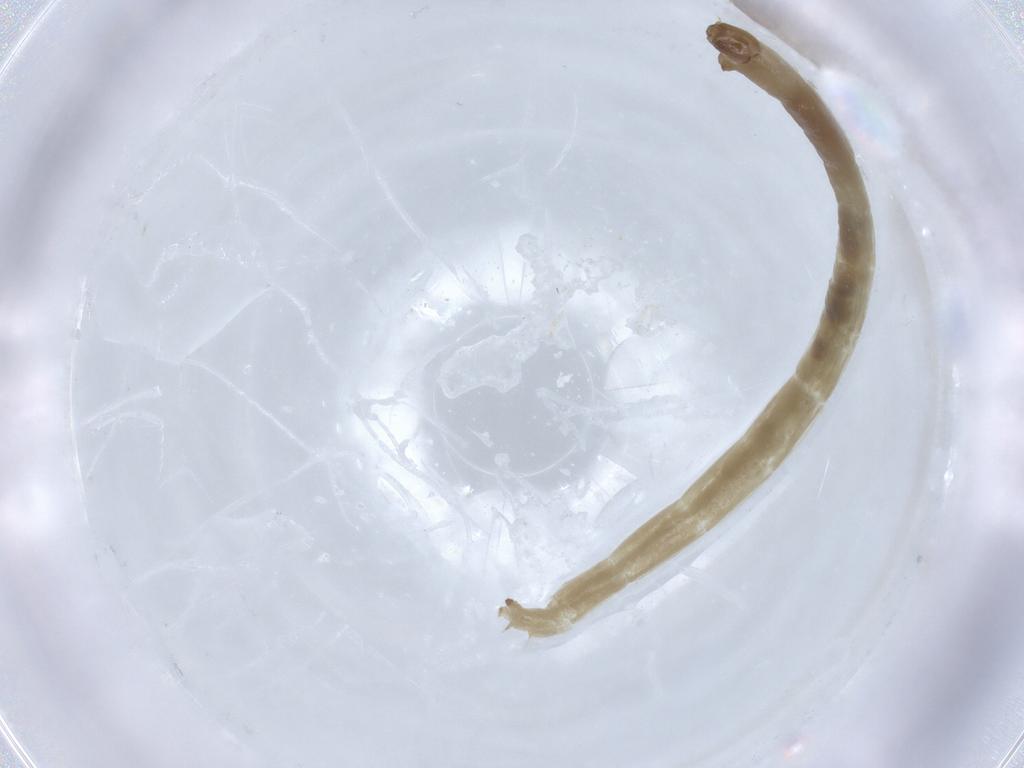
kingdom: Animalia
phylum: Arthropoda
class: Insecta
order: Diptera
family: Chironomidae
